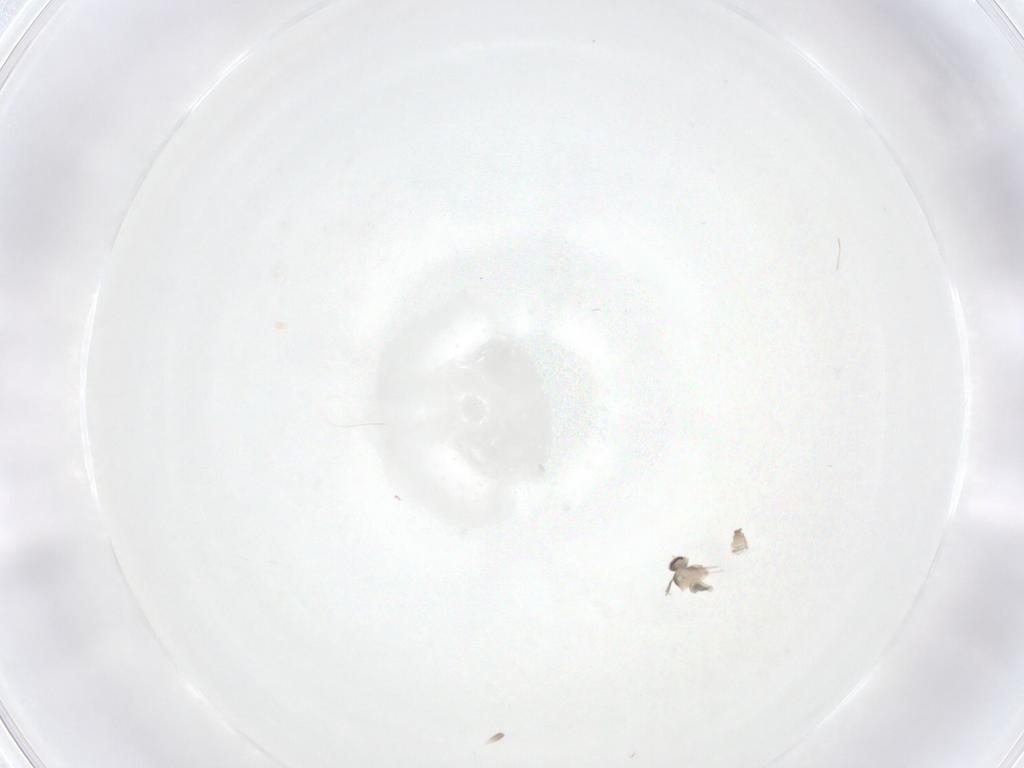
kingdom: Animalia
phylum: Arthropoda
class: Insecta
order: Diptera
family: Cecidomyiidae
